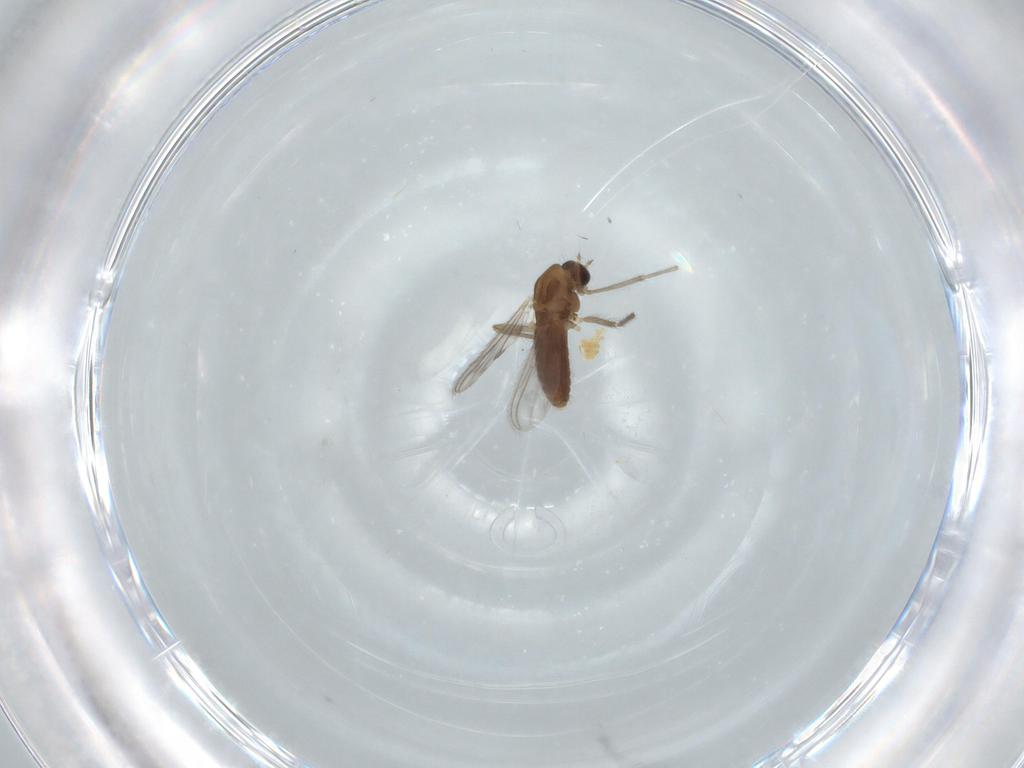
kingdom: Animalia
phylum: Arthropoda
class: Insecta
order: Diptera
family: Chironomidae
